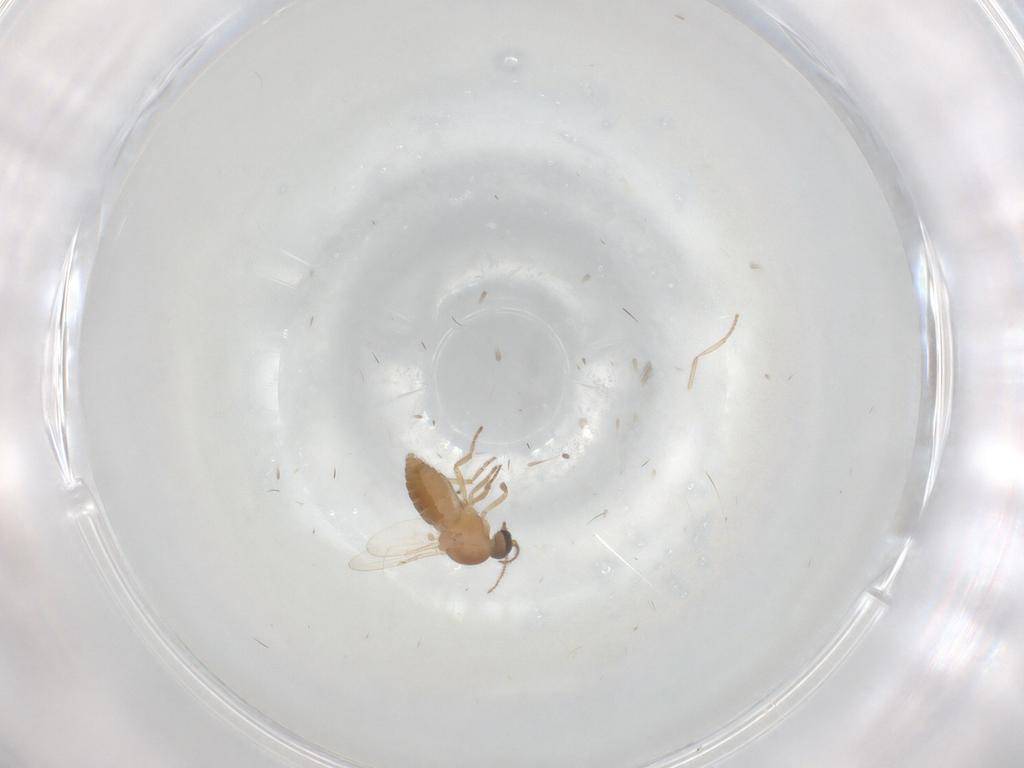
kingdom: Animalia
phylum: Arthropoda
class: Insecta
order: Diptera
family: Ceratopogonidae
